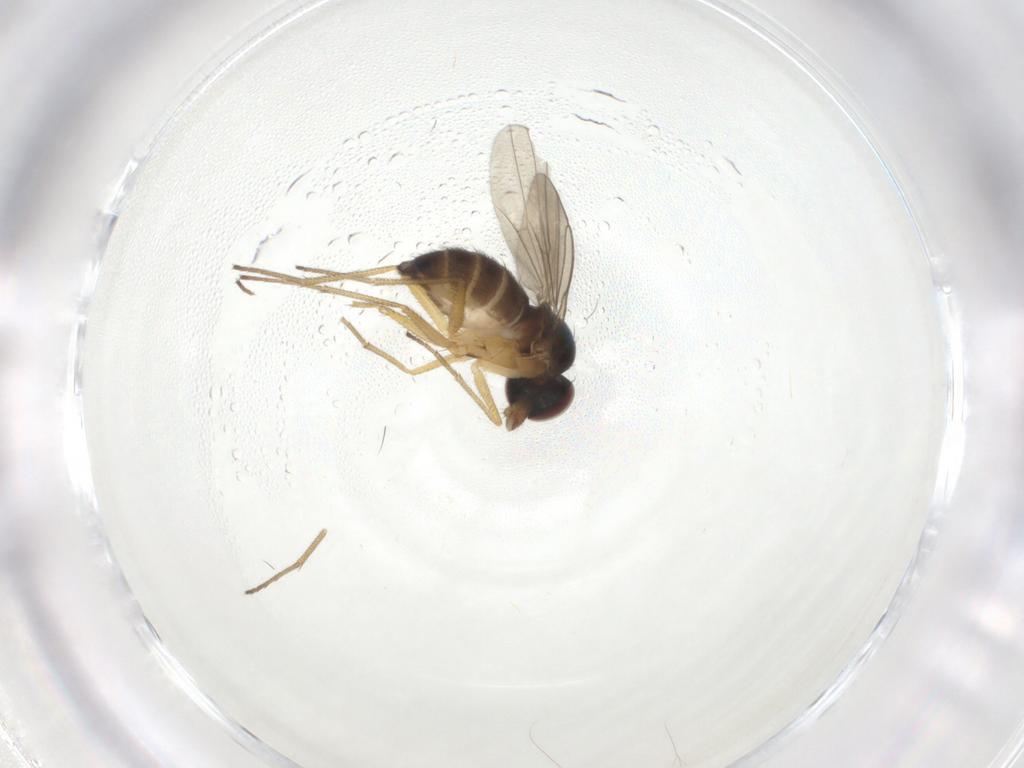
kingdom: Animalia
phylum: Arthropoda
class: Insecta
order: Diptera
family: Dolichopodidae
